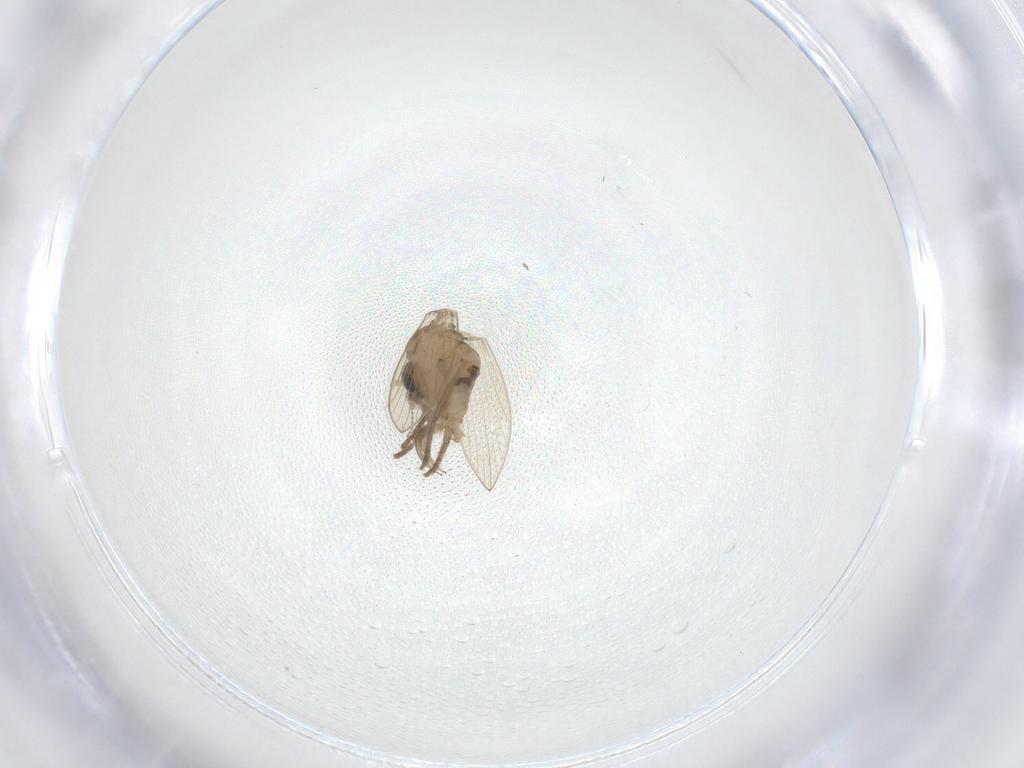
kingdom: Animalia
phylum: Arthropoda
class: Insecta
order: Diptera
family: Psychodidae
